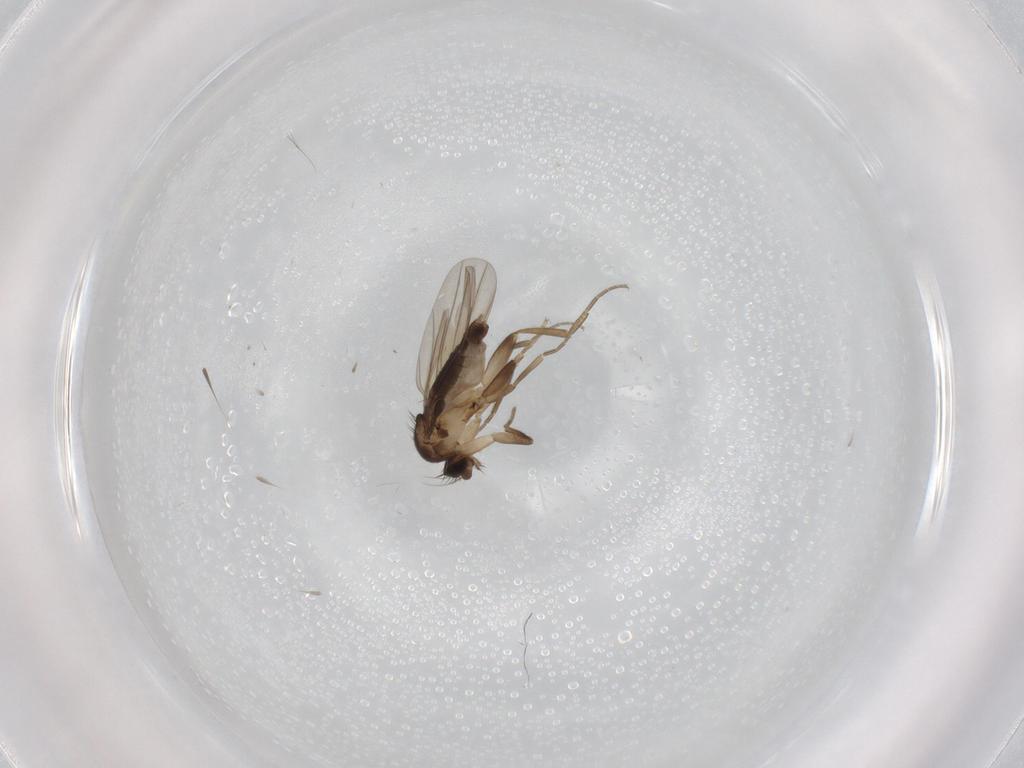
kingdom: Animalia
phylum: Arthropoda
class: Insecta
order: Diptera
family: Phoridae
